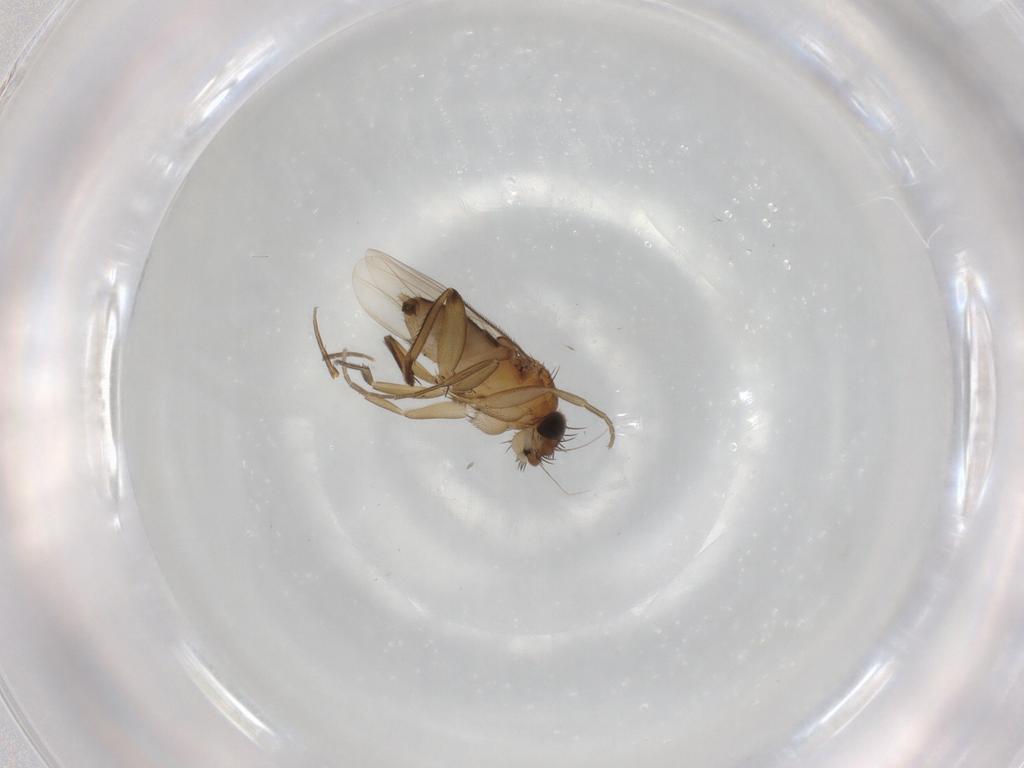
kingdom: Animalia
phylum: Arthropoda
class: Insecta
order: Diptera
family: Phoridae
